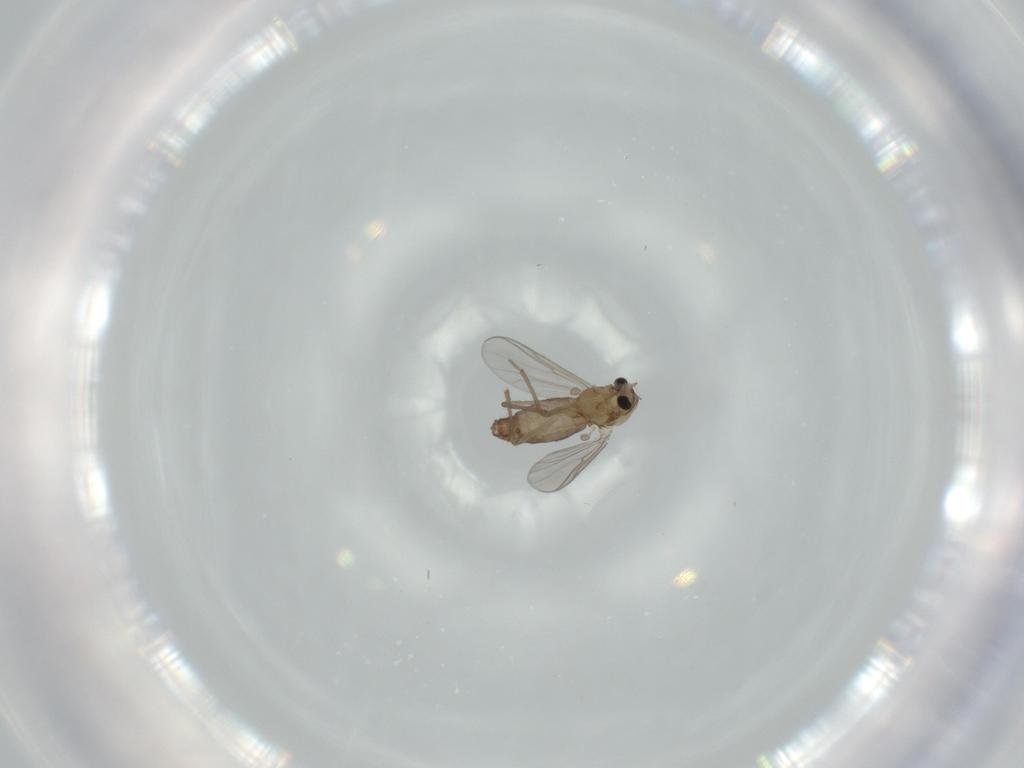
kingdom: Animalia
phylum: Arthropoda
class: Insecta
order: Diptera
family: Chironomidae
